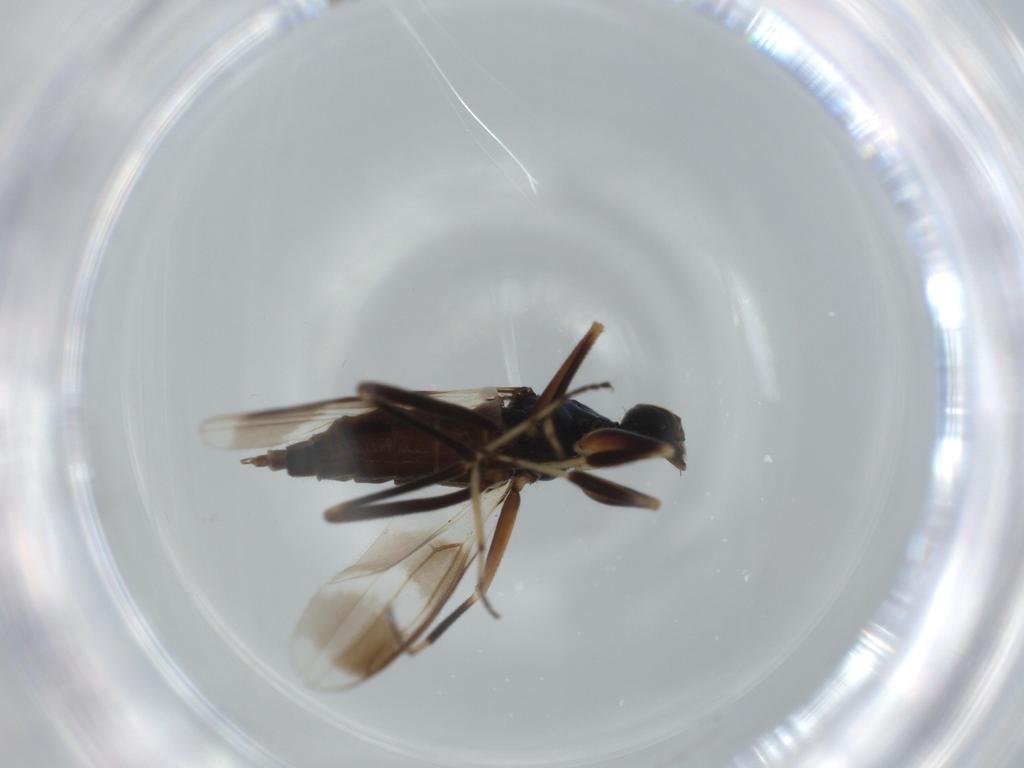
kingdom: Animalia
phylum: Arthropoda
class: Insecta
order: Diptera
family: Hybotidae
